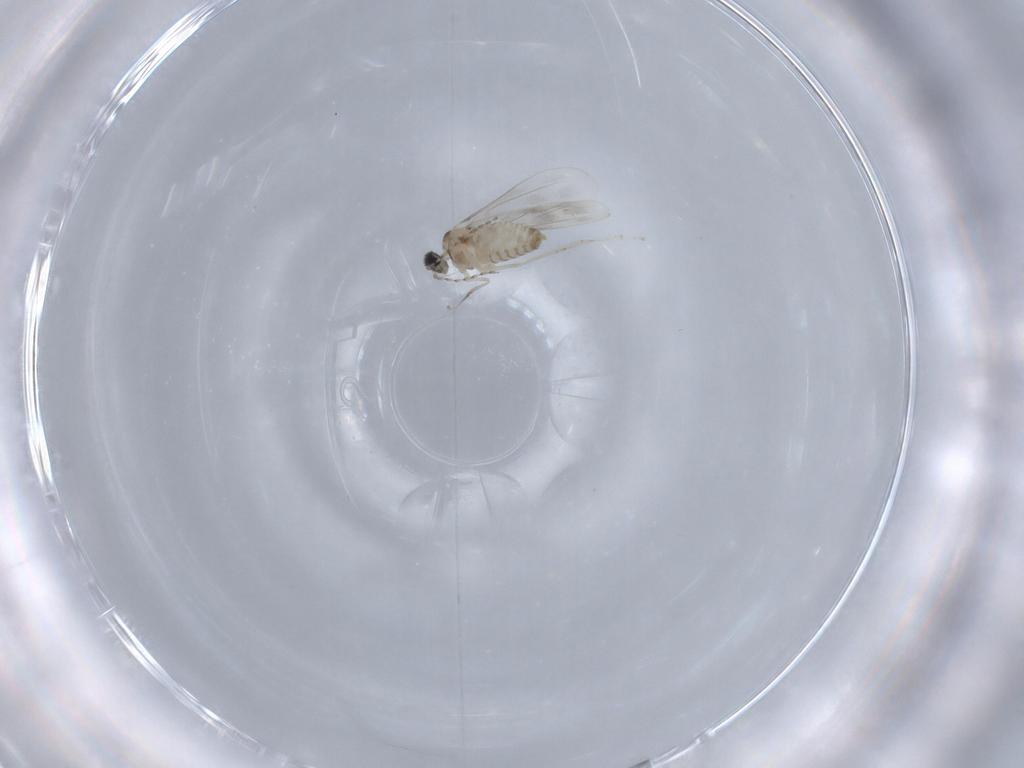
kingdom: Animalia
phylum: Arthropoda
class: Insecta
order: Diptera
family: Cecidomyiidae
